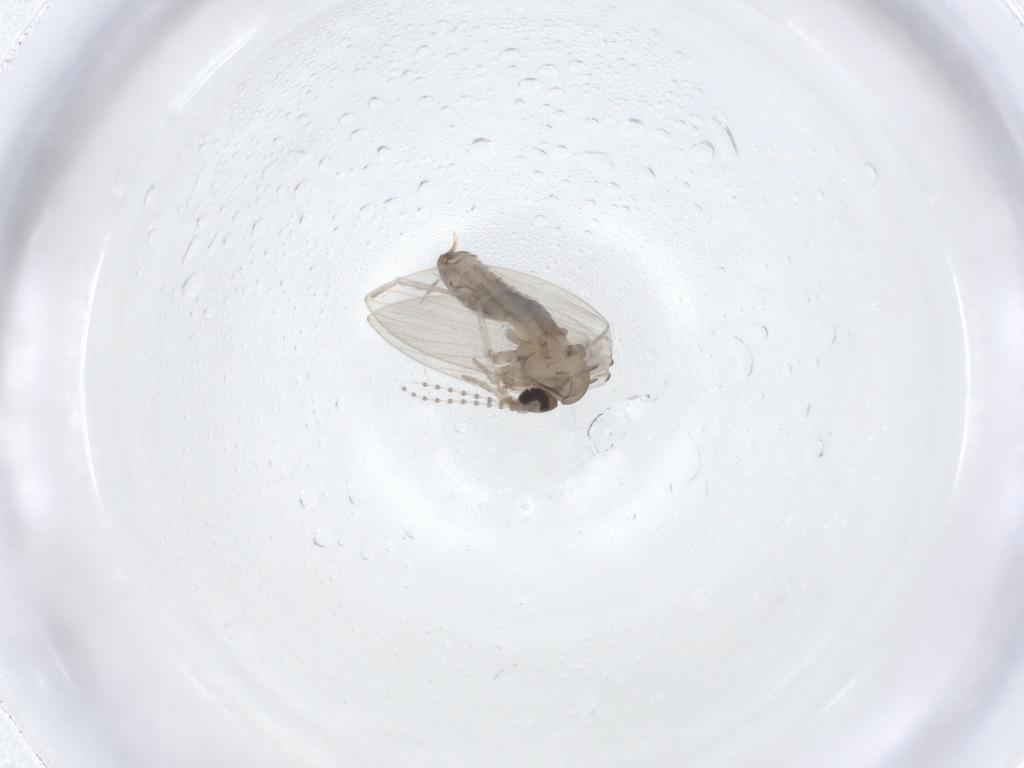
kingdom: Animalia
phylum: Arthropoda
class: Insecta
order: Diptera
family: Psychodidae
